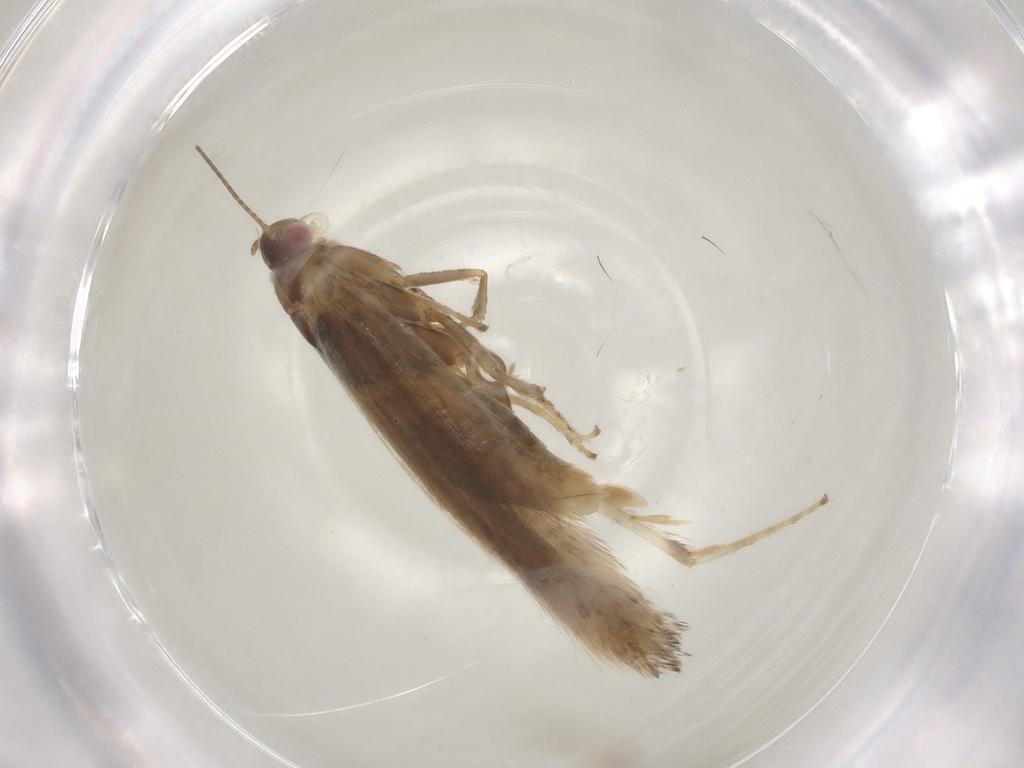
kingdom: Animalia
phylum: Arthropoda
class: Insecta
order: Lepidoptera
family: Gelechiidae
